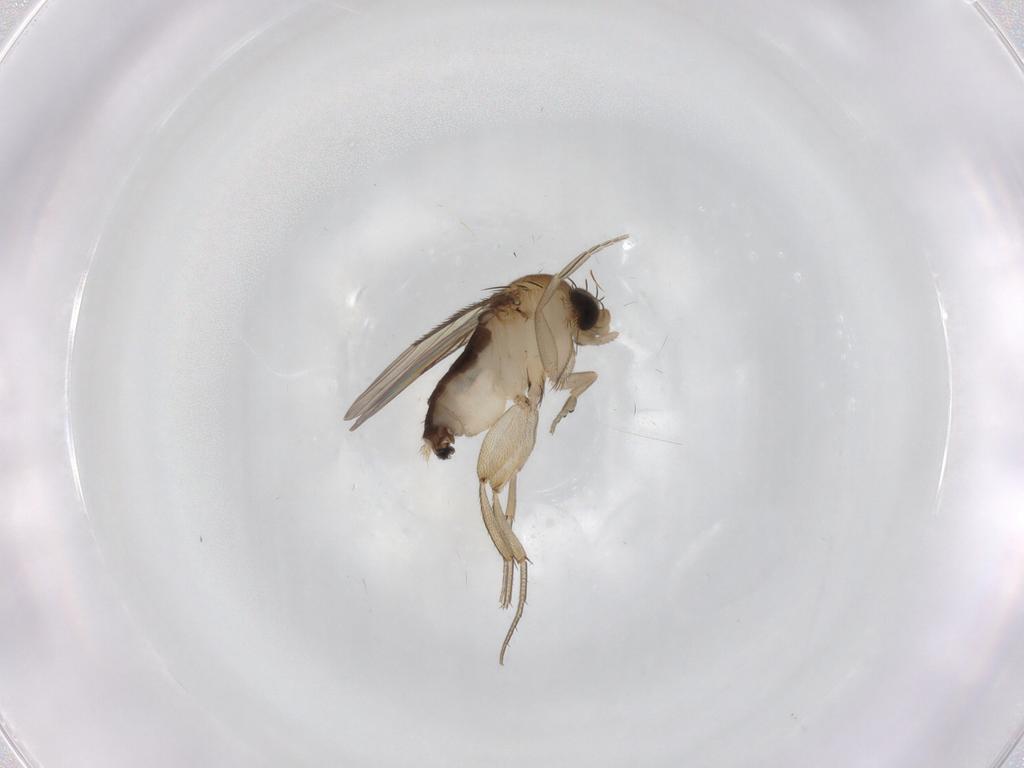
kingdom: Animalia
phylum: Arthropoda
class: Insecta
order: Diptera
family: Phoridae
